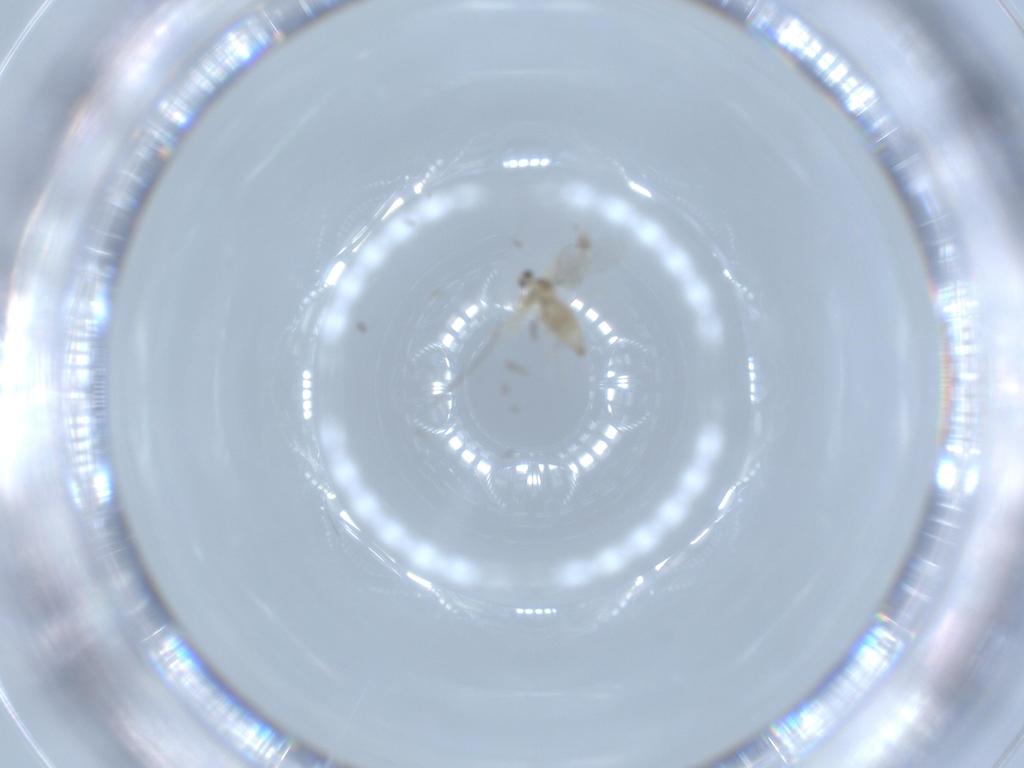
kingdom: Animalia
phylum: Arthropoda
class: Insecta
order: Diptera
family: Cecidomyiidae
